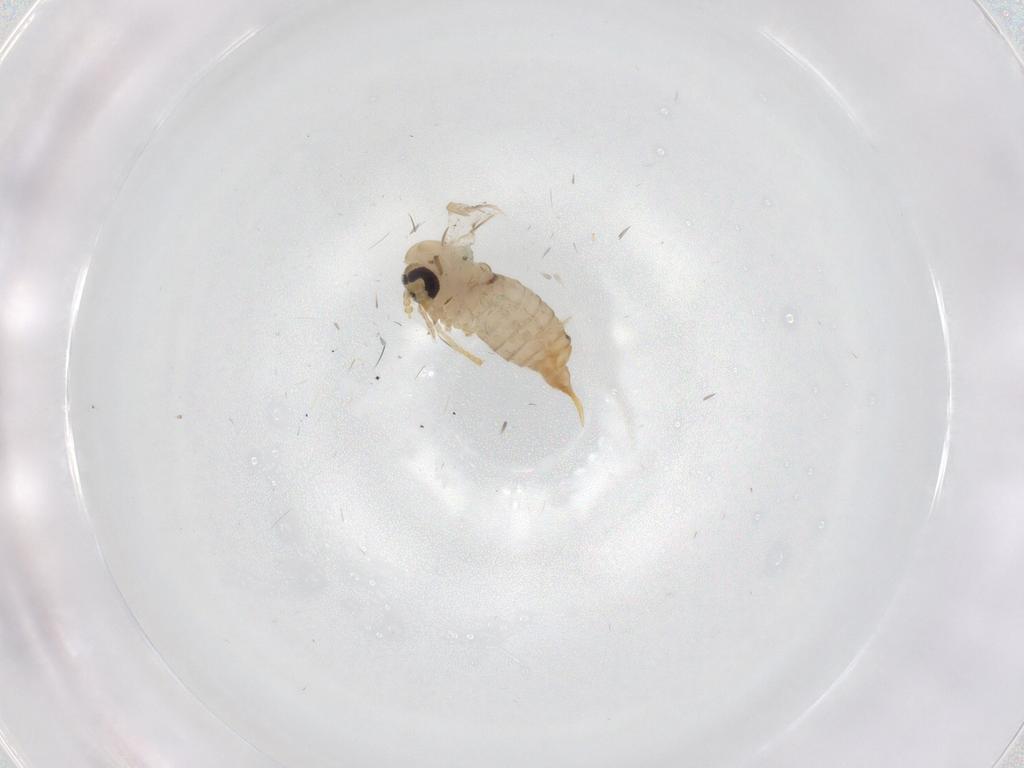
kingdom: Animalia
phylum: Arthropoda
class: Insecta
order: Diptera
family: Psychodidae
